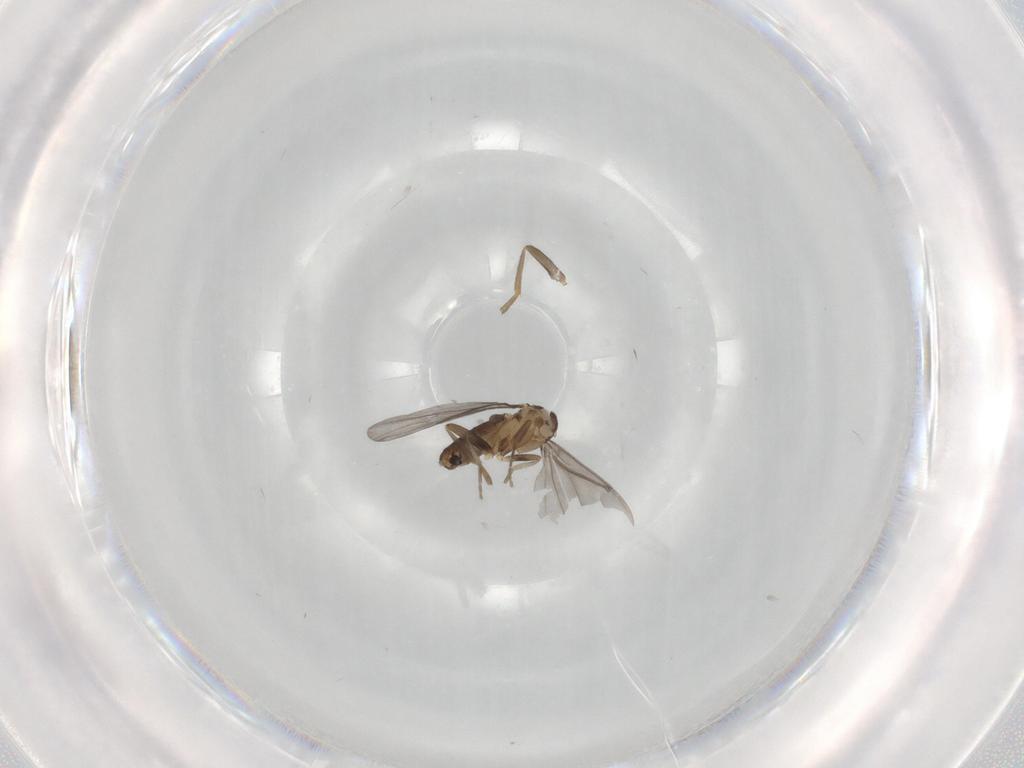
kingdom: Animalia
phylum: Arthropoda
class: Insecta
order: Diptera
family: Phoridae
